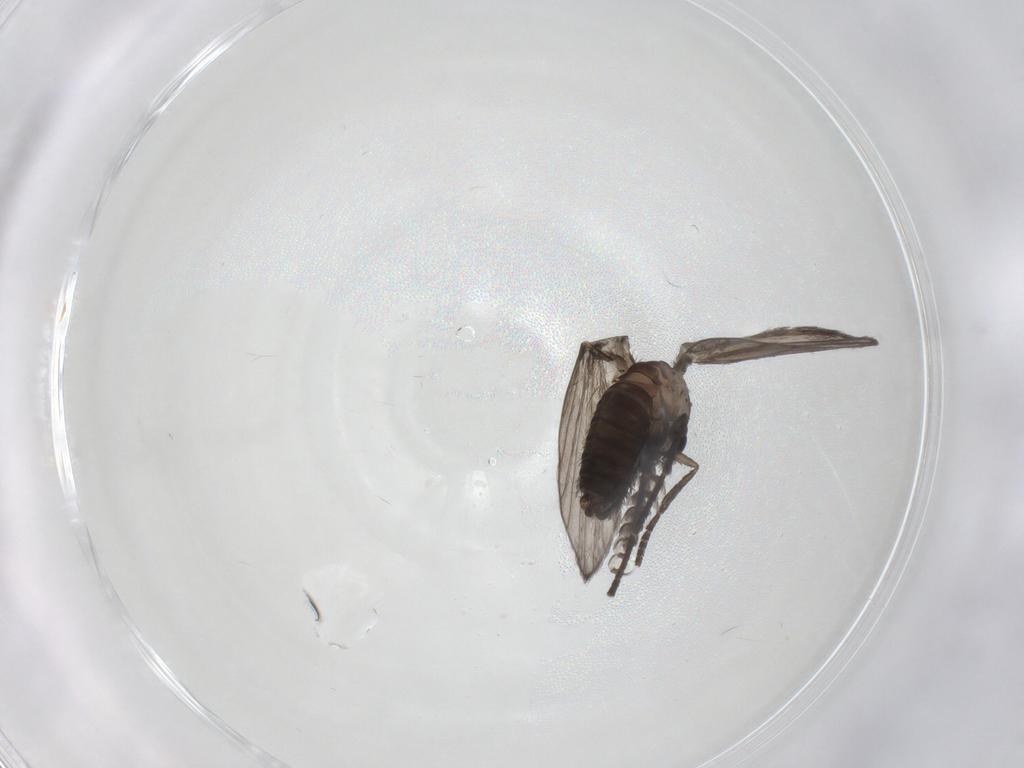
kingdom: Animalia
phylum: Arthropoda
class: Insecta
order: Diptera
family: Psychodidae
